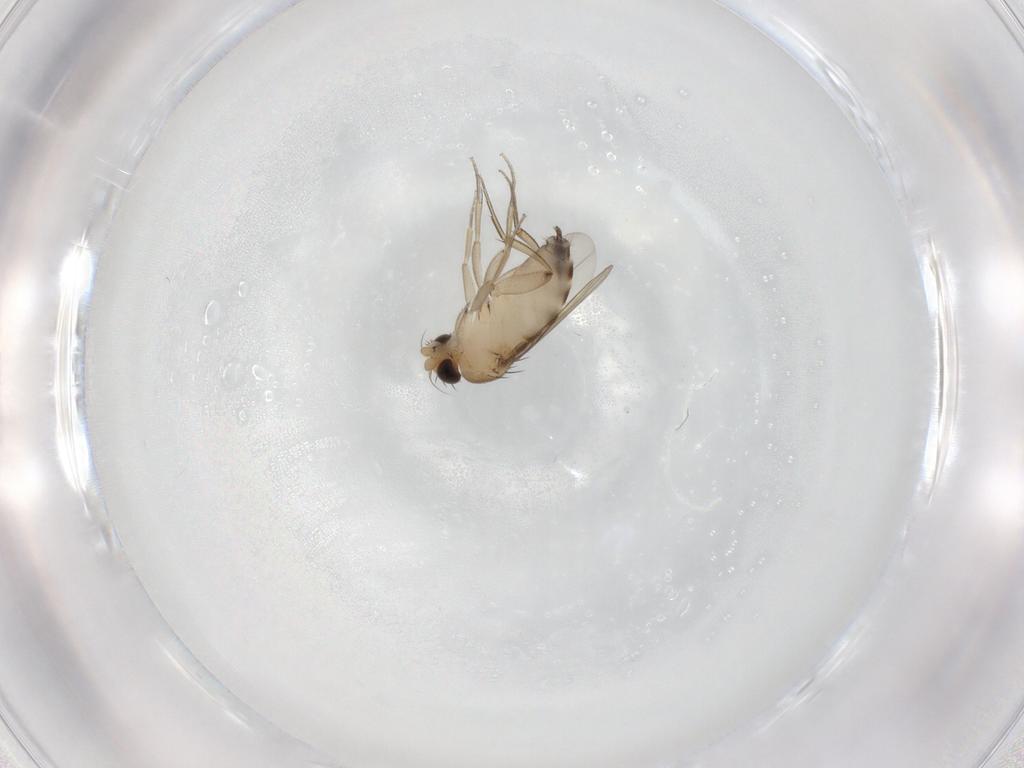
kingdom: Animalia
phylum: Arthropoda
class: Insecta
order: Diptera
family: Phoridae
